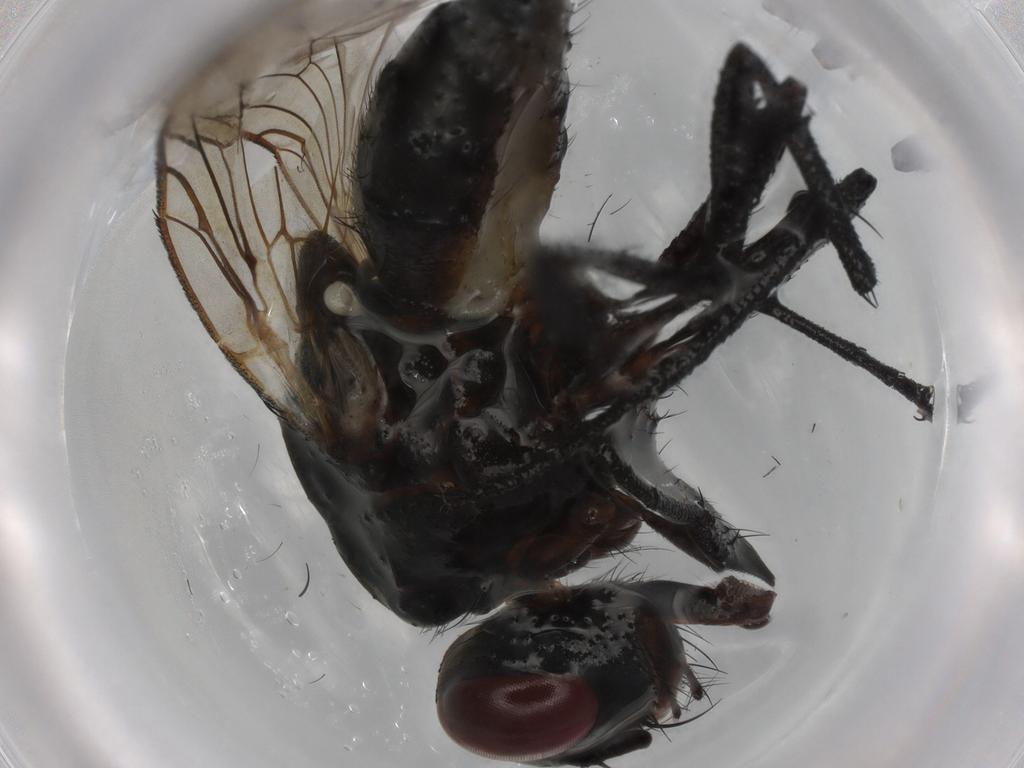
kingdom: Animalia
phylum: Arthropoda
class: Insecta
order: Diptera
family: Anthomyiidae
